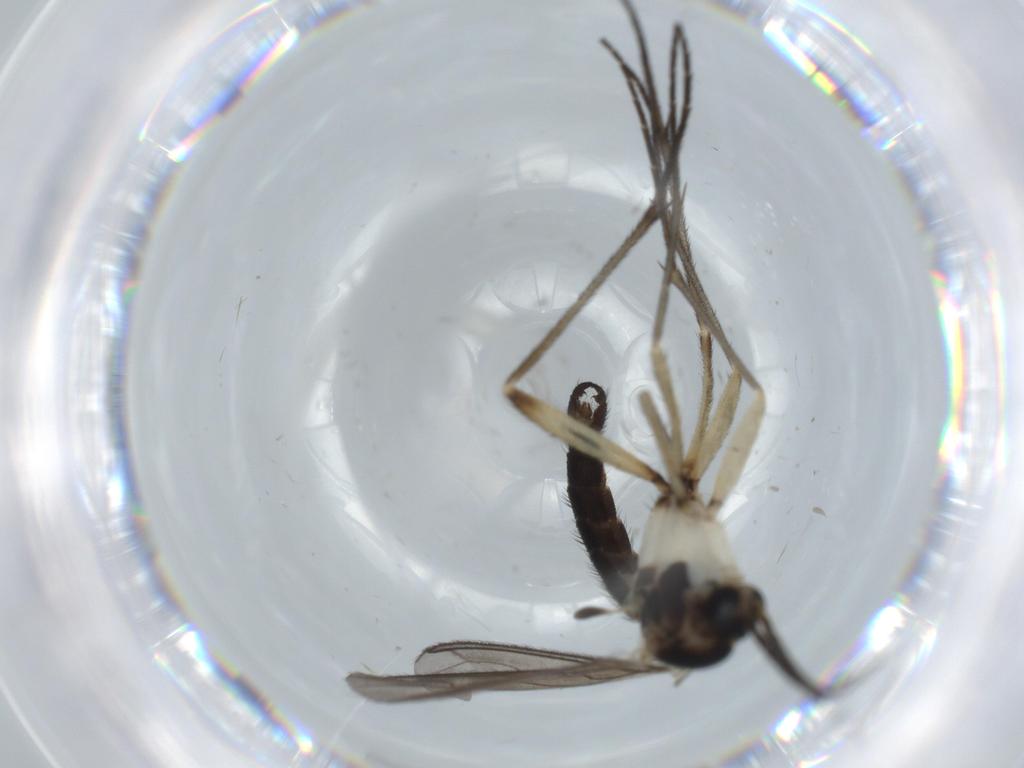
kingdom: Animalia
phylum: Arthropoda
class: Insecta
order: Diptera
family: Sciaridae
